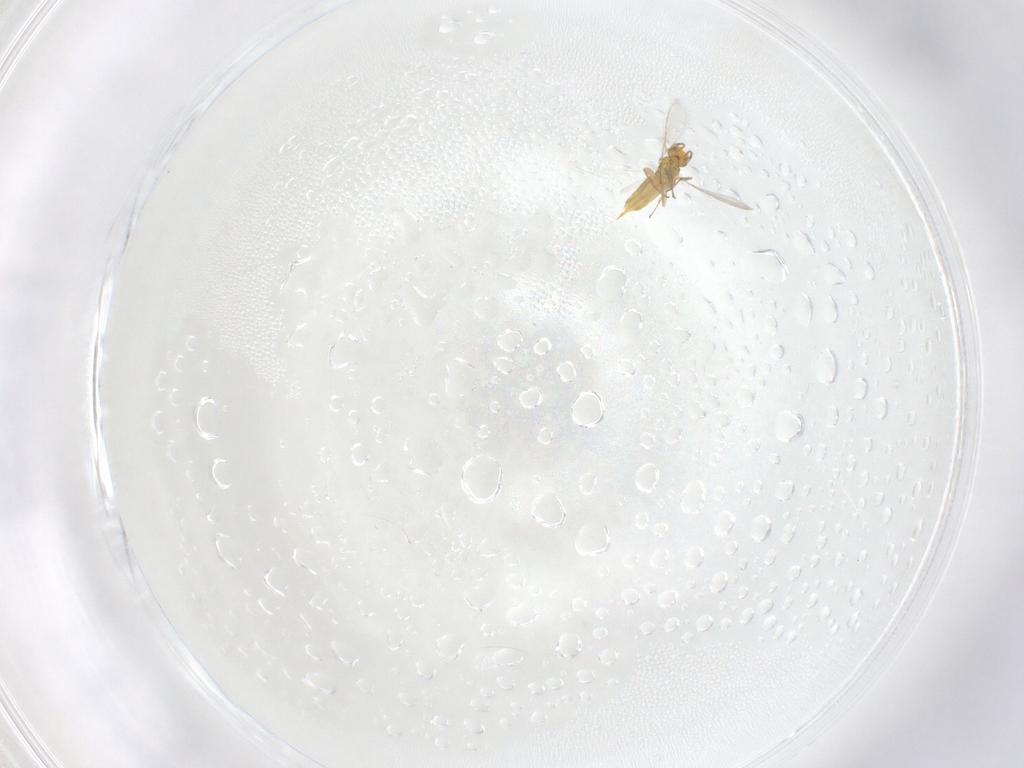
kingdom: Animalia
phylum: Arthropoda
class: Insecta
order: Hymenoptera
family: Aphelinidae
